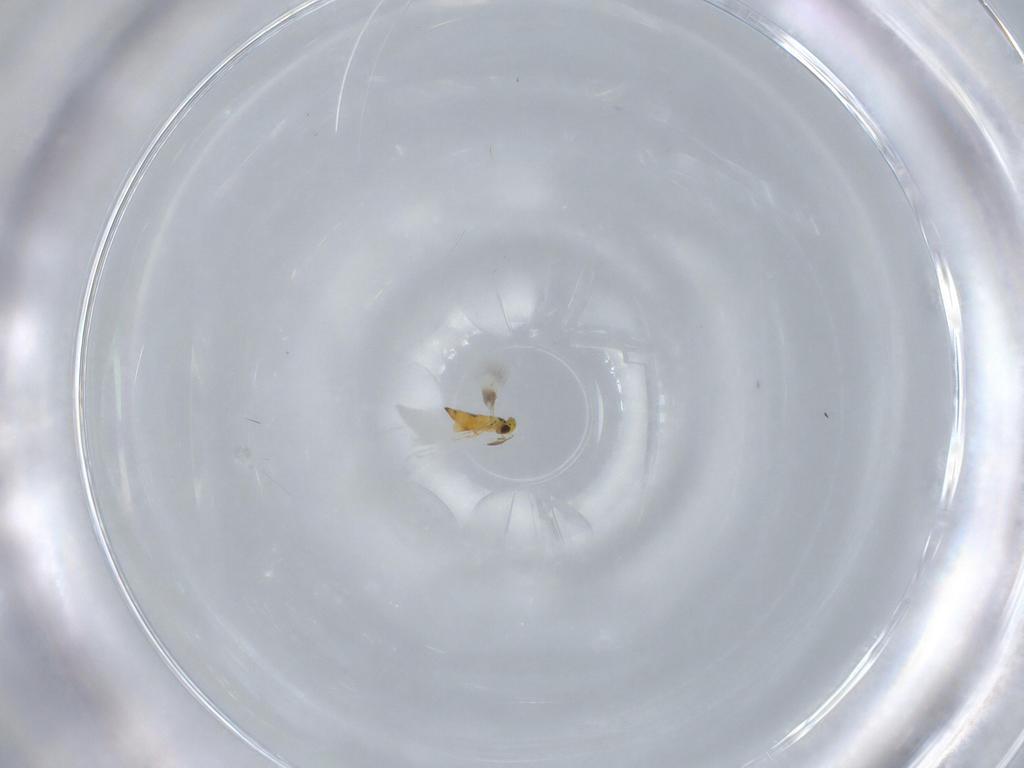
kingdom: Animalia
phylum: Arthropoda
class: Insecta
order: Hymenoptera
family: Signiphoridae
